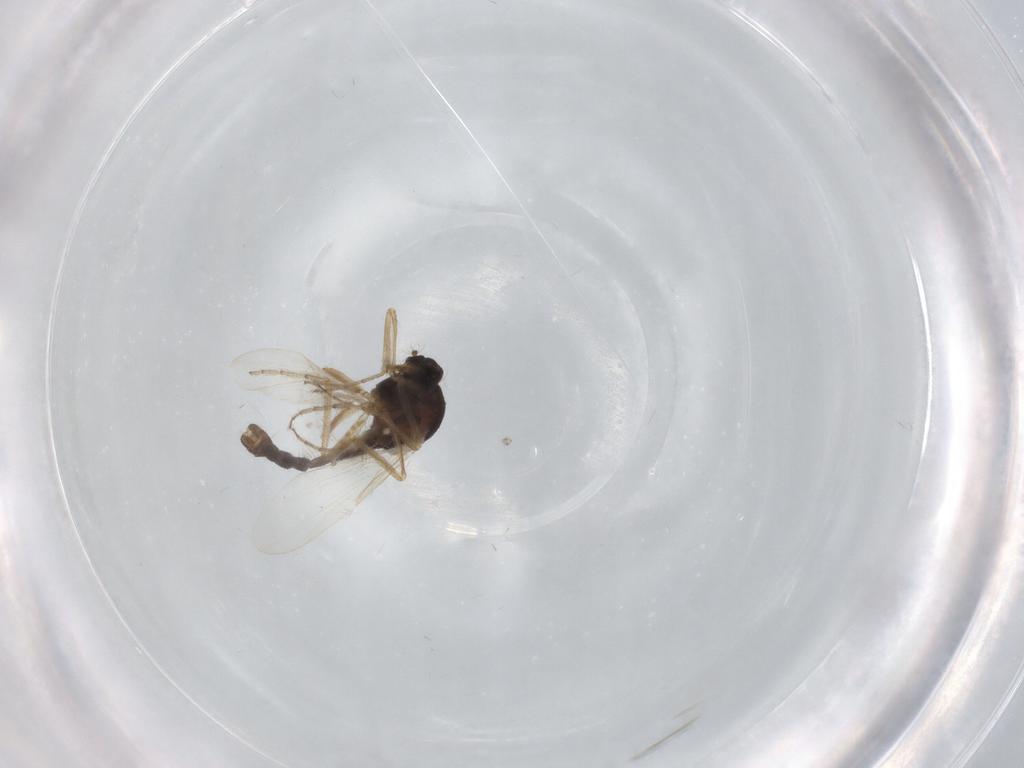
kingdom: Animalia
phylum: Arthropoda
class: Insecta
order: Diptera
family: Ceratopogonidae
